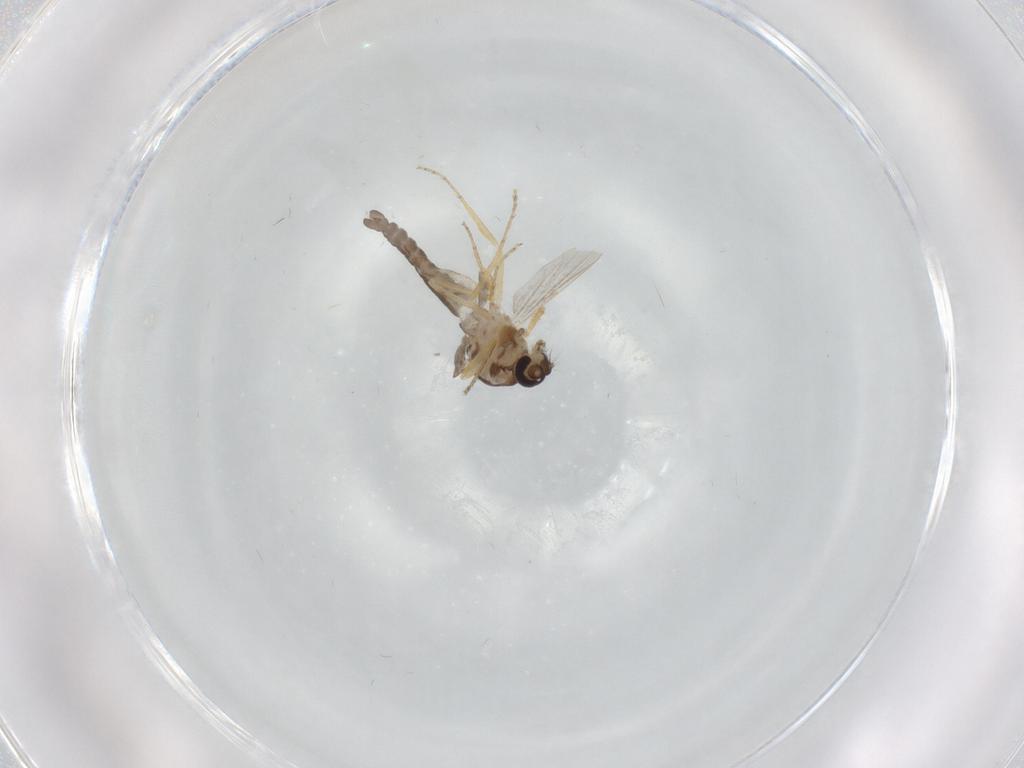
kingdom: Animalia
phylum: Arthropoda
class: Insecta
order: Diptera
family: Ceratopogonidae
